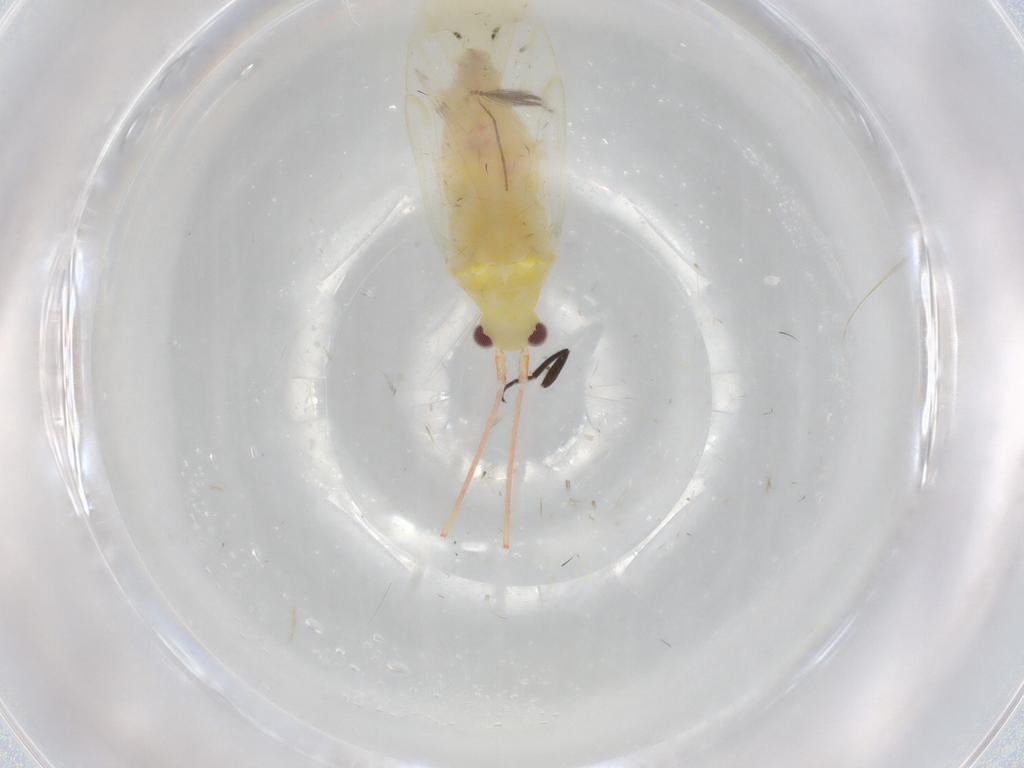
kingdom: Animalia
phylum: Arthropoda
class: Insecta
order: Hemiptera
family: Miridae
